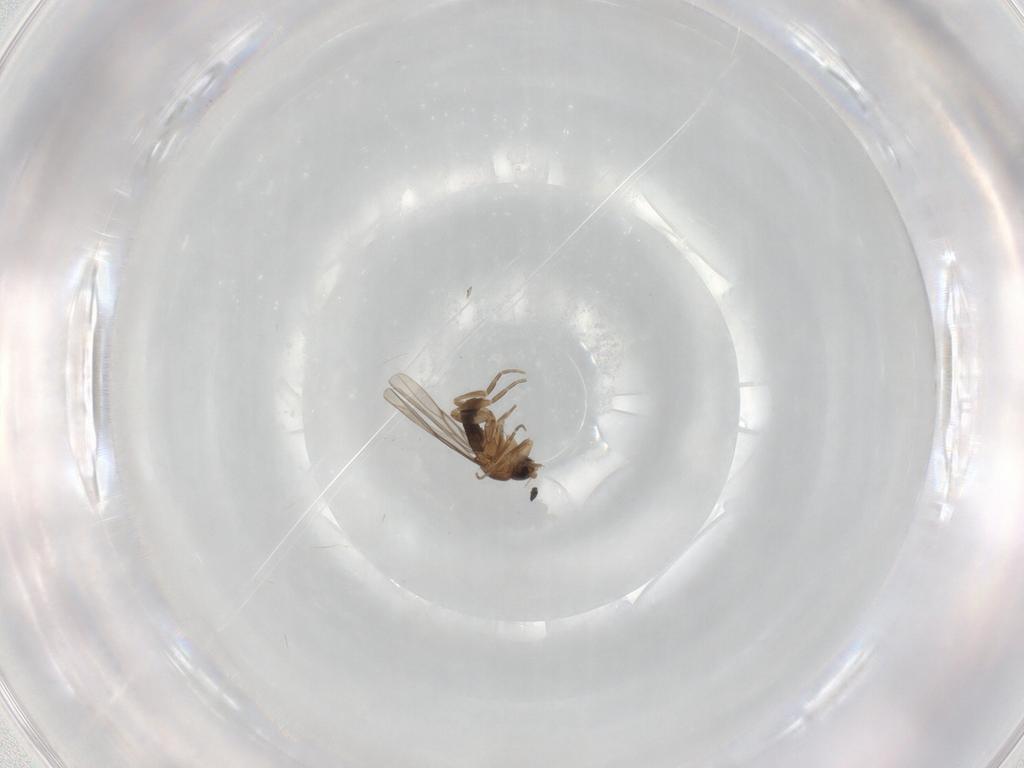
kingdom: Animalia
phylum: Arthropoda
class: Insecta
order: Diptera
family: Phoridae
